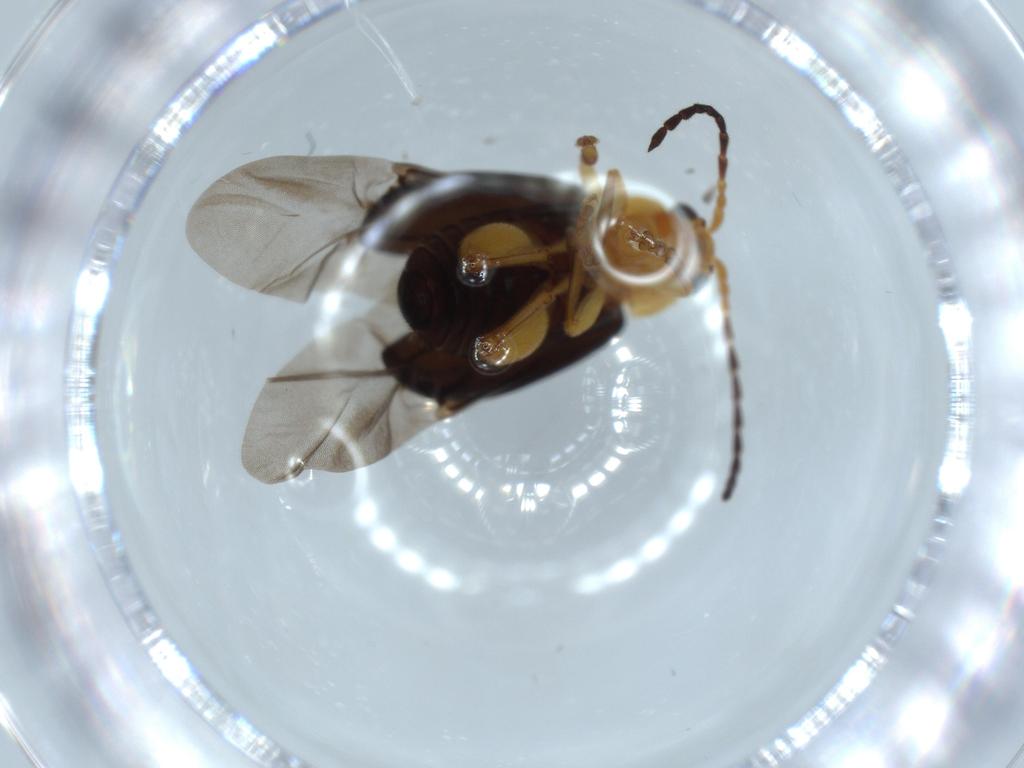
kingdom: Animalia
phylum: Arthropoda
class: Insecta
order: Coleoptera
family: Chrysomelidae
